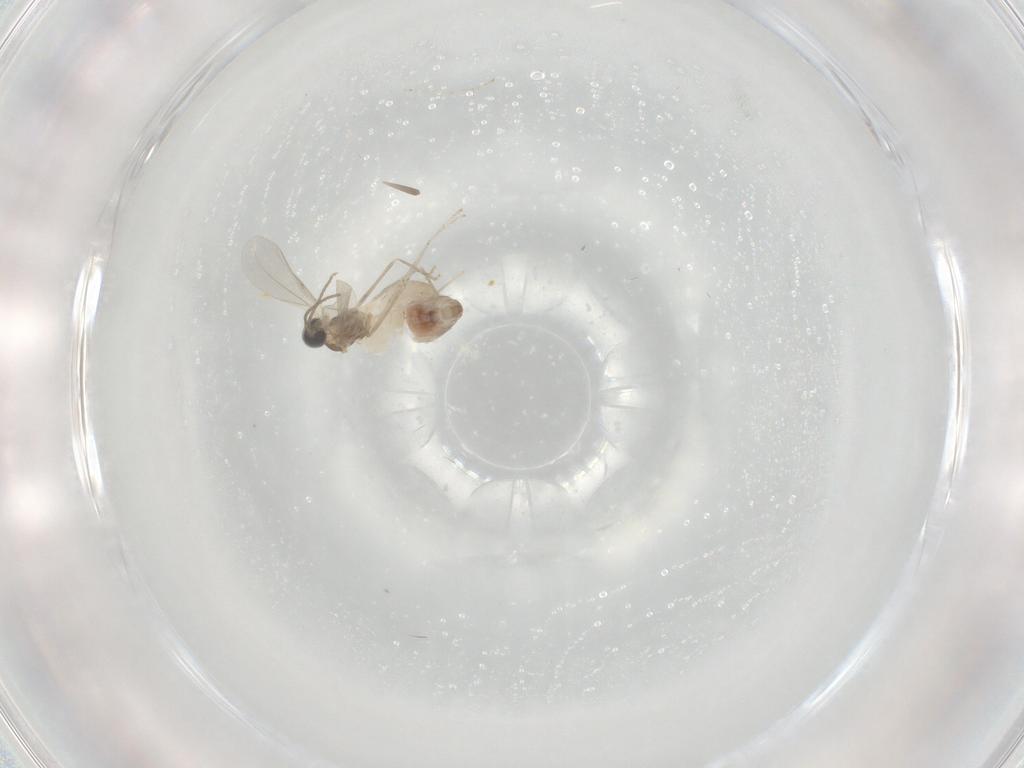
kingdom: Animalia
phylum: Arthropoda
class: Insecta
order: Diptera
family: Cecidomyiidae
